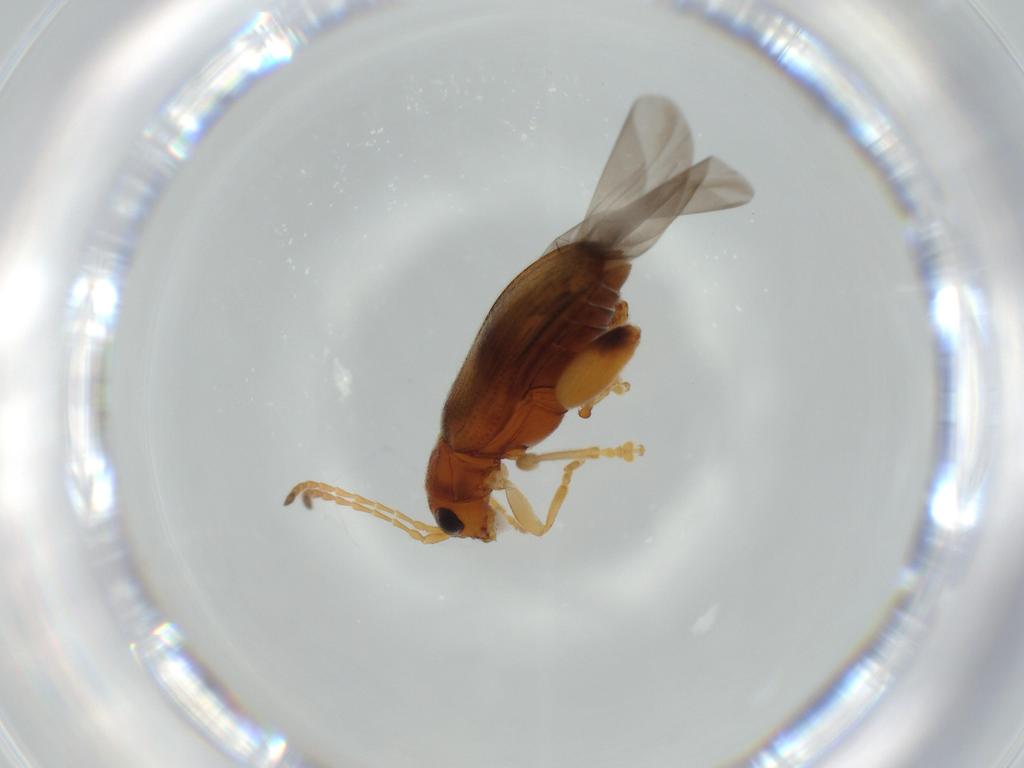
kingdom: Animalia
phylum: Arthropoda
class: Insecta
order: Coleoptera
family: Chrysomelidae
